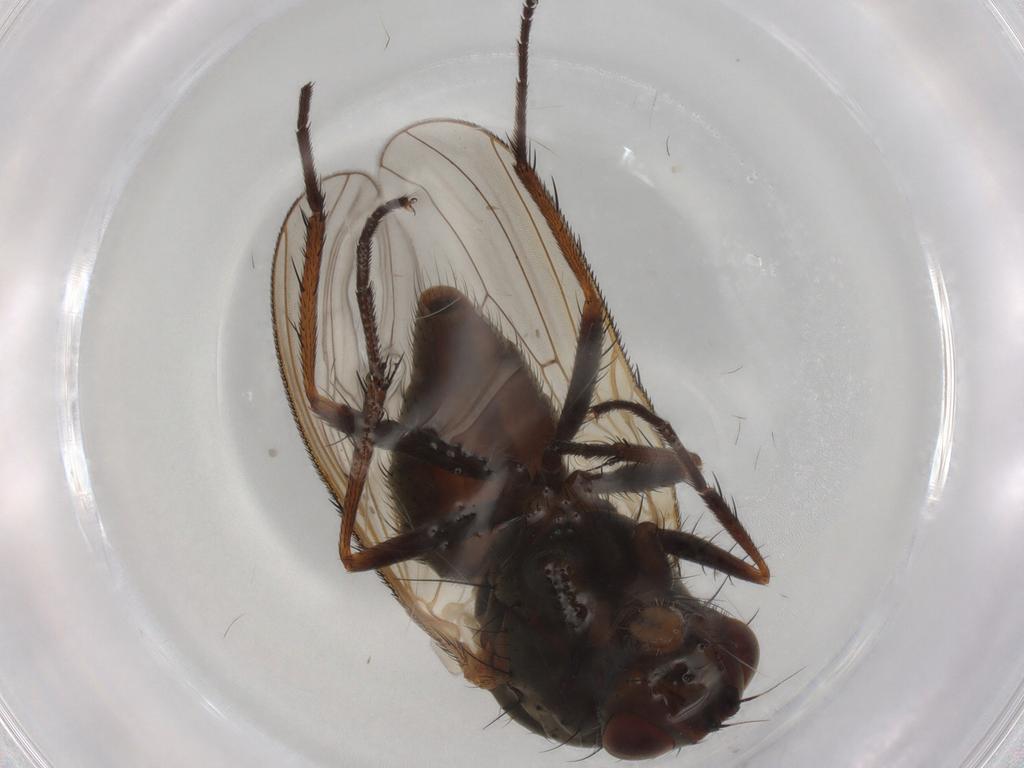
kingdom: Animalia
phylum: Arthropoda
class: Insecta
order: Diptera
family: Anthomyiidae
